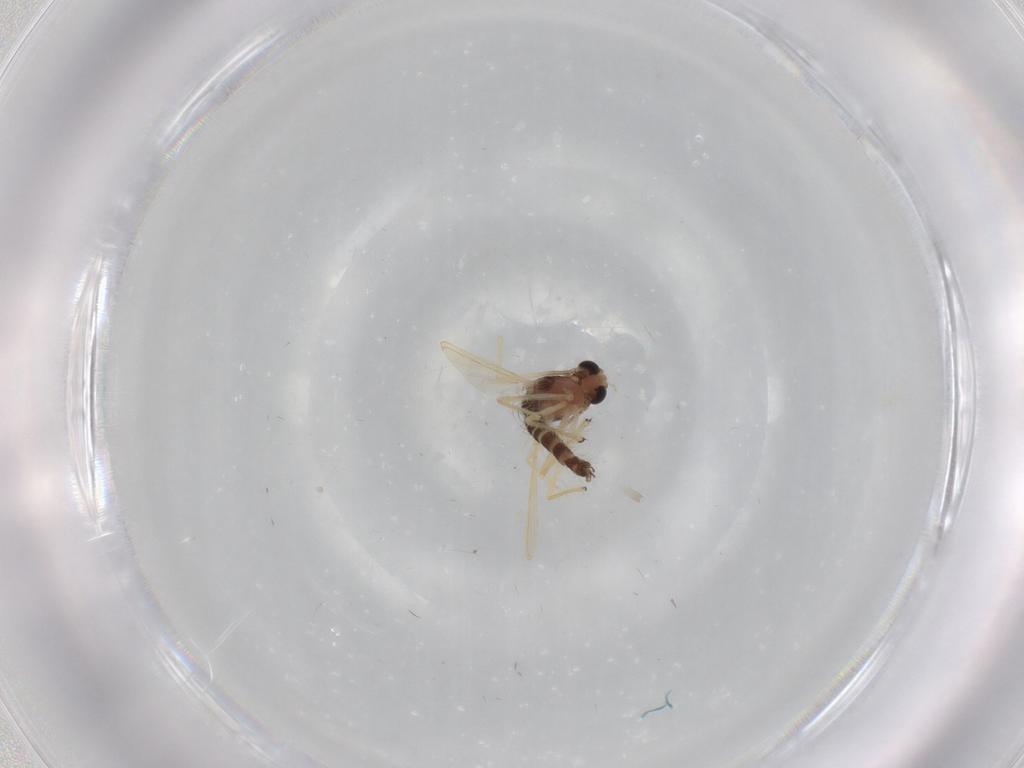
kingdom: Animalia
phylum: Arthropoda
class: Insecta
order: Diptera
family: Chironomidae
